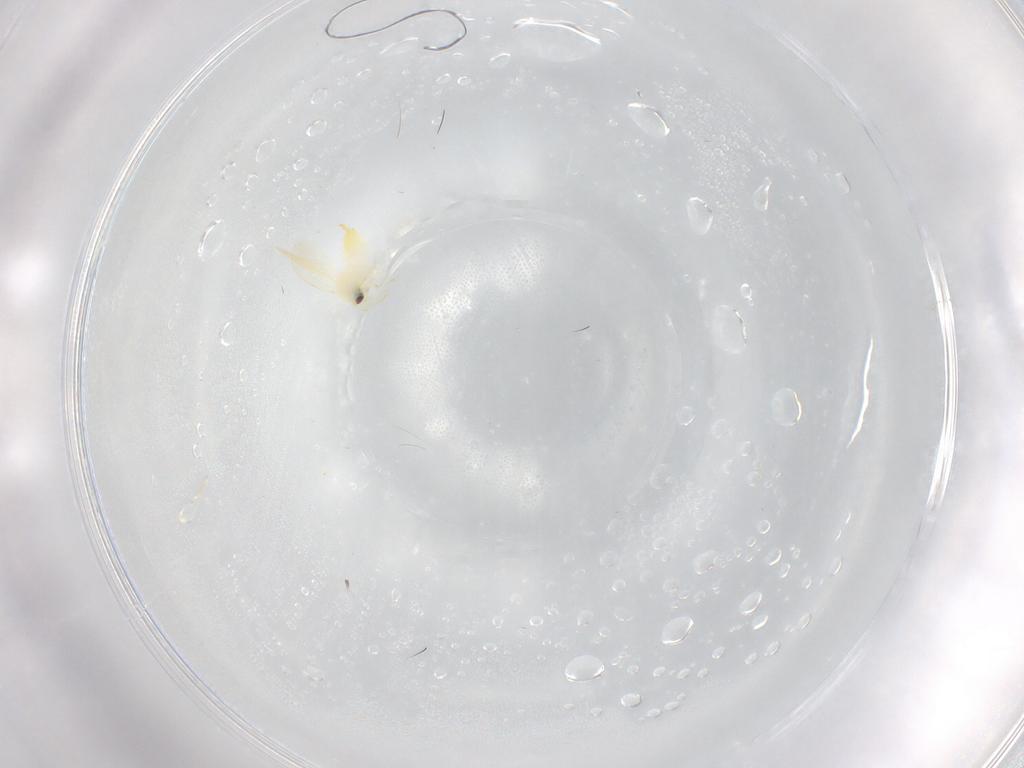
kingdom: Animalia
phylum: Arthropoda
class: Insecta
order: Hemiptera
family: Aleyrodidae
